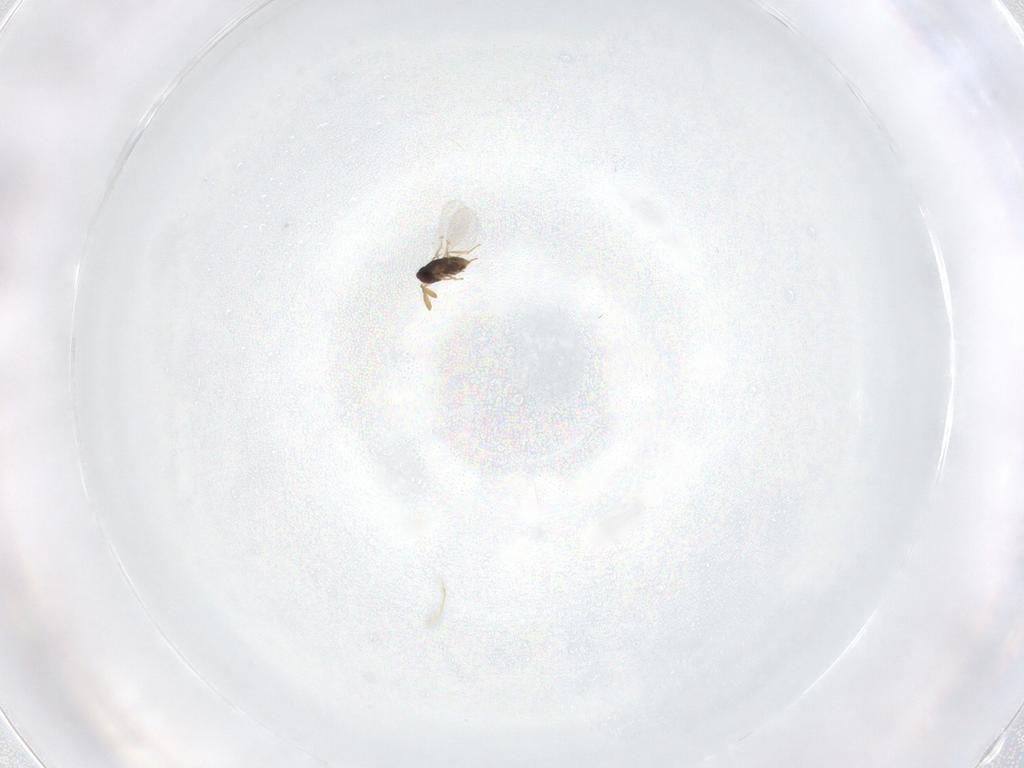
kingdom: Animalia
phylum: Arthropoda
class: Insecta
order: Hymenoptera
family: Encyrtidae
